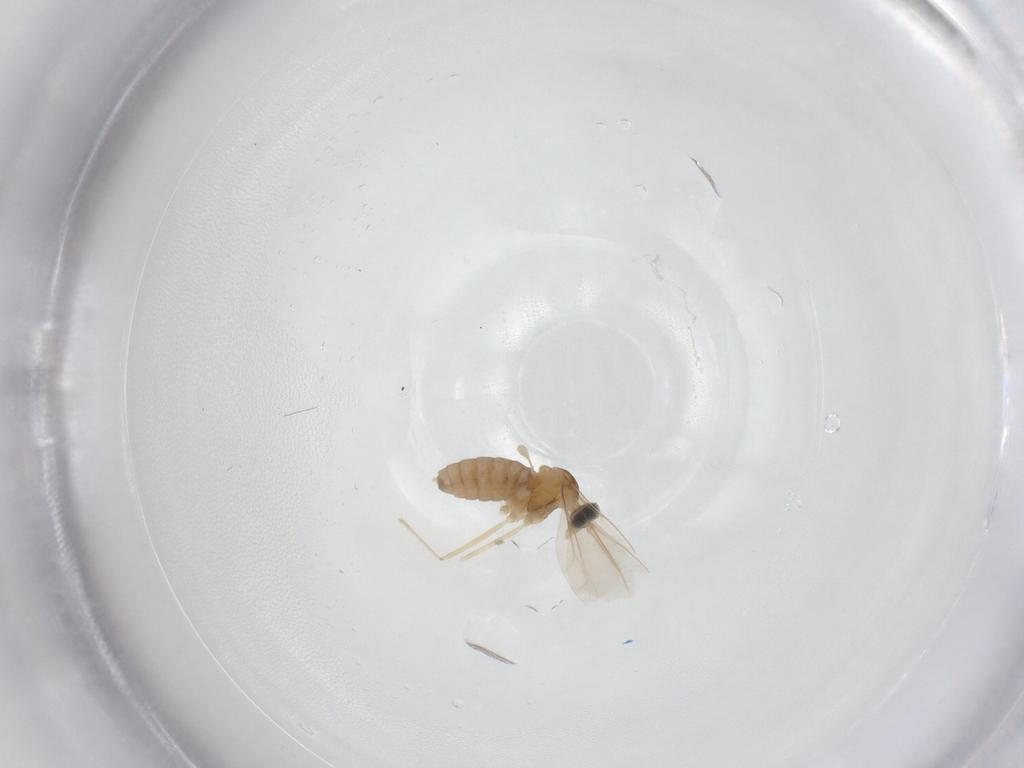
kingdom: Animalia
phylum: Arthropoda
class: Insecta
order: Diptera
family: Cecidomyiidae
